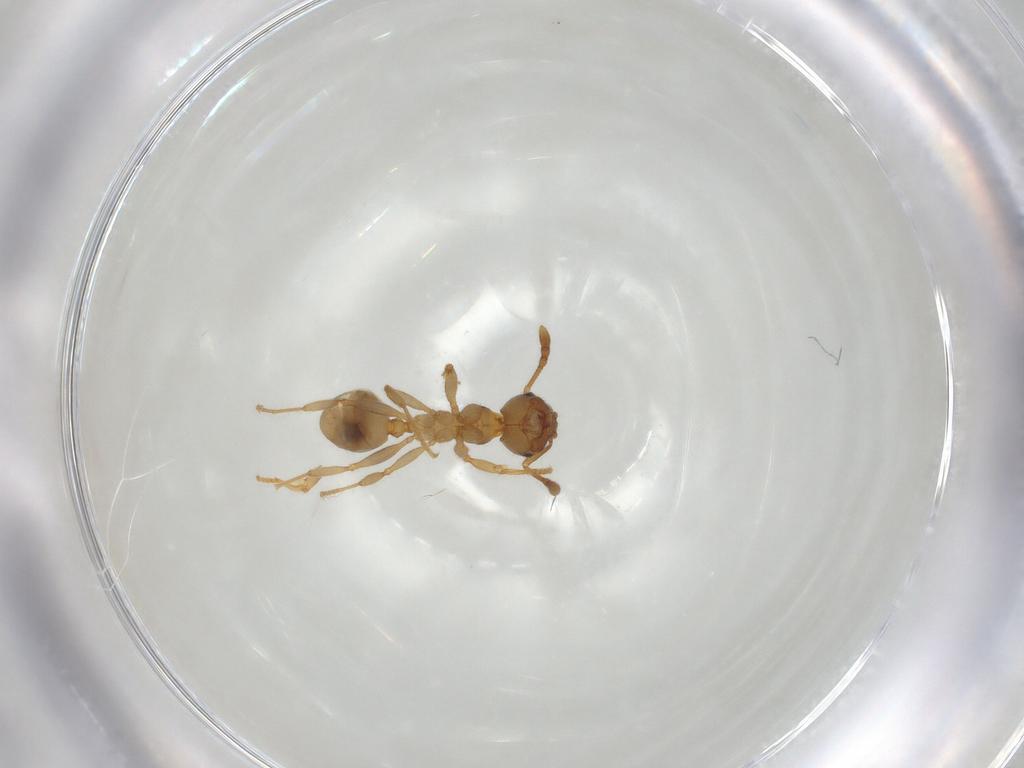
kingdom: Animalia
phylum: Arthropoda
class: Insecta
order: Hymenoptera
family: Formicidae
